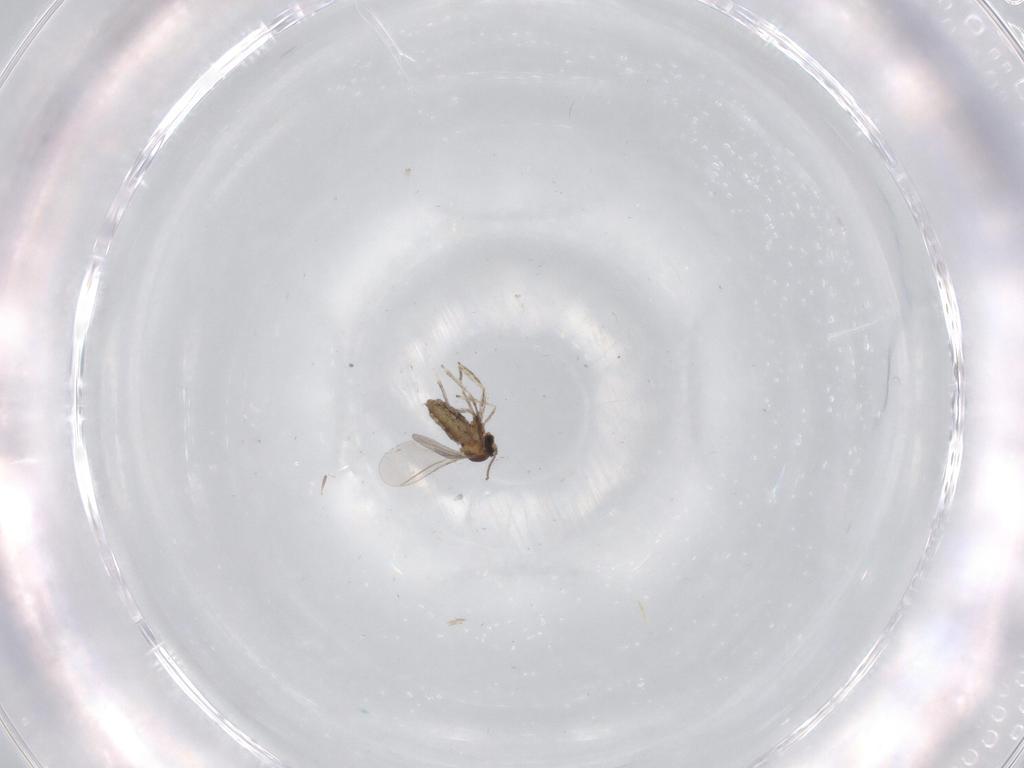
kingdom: Animalia
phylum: Arthropoda
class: Insecta
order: Diptera
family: Cecidomyiidae
